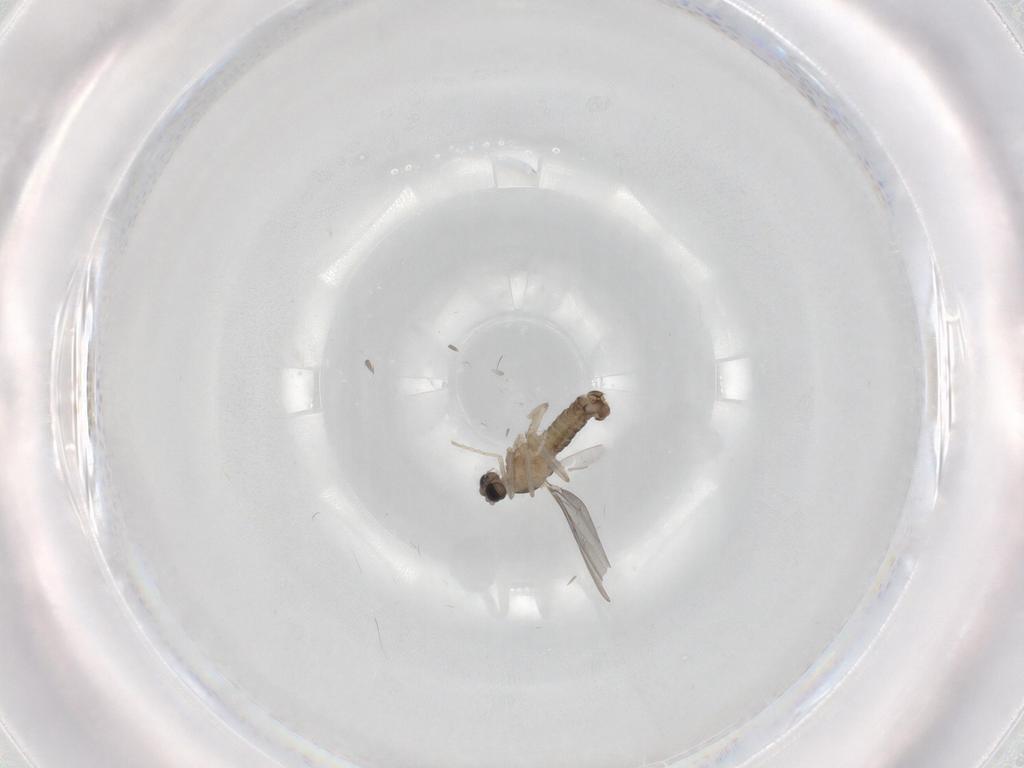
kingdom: Animalia
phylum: Arthropoda
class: Insecta
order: Diptera
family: Cecidomyiidae
